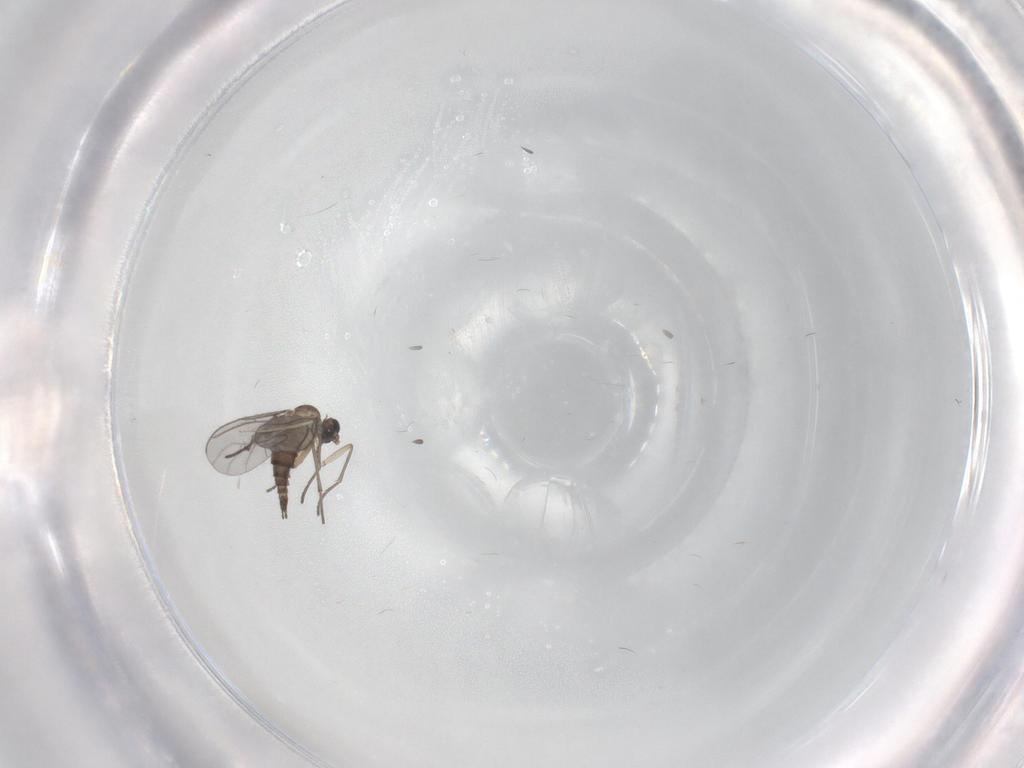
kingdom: Animalia
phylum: Arthropoda
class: Insecta
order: Diptera
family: Sciaridae
